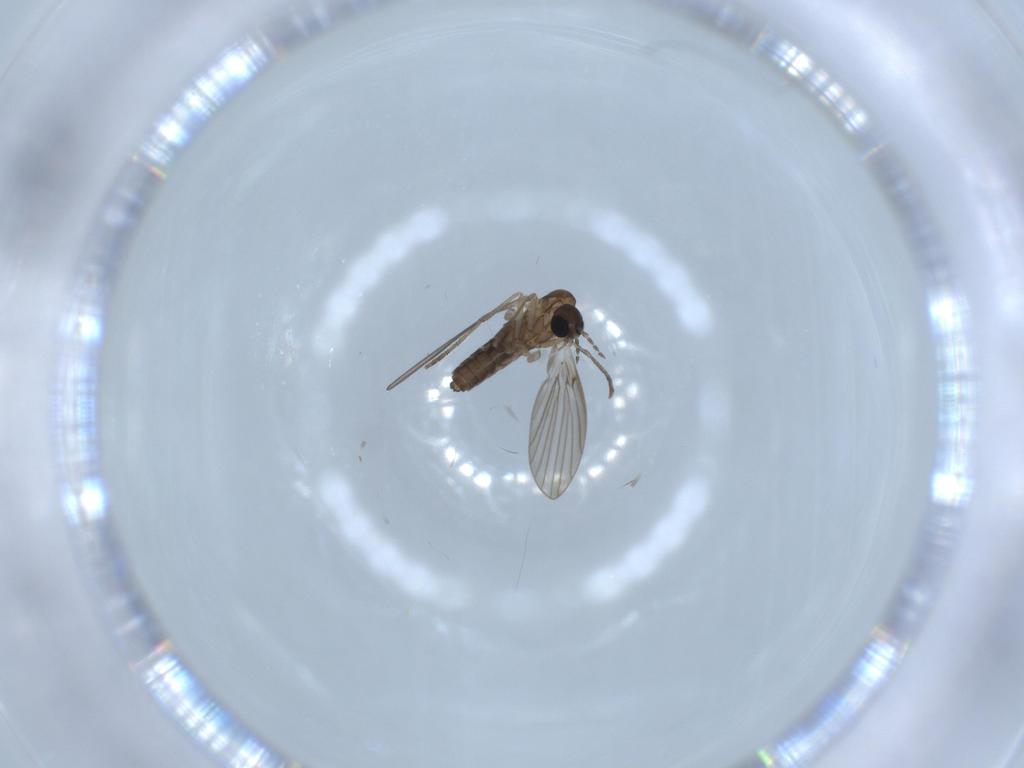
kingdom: Animalia
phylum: Arthropoda
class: Insecta
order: Diptera
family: Psychodidae
